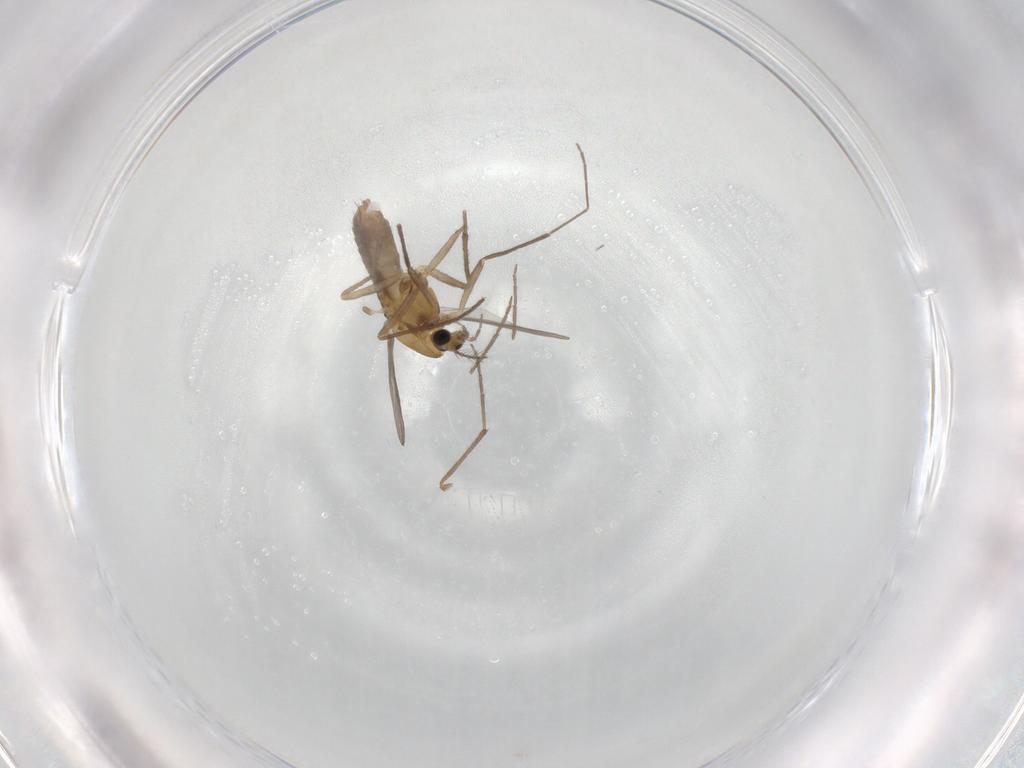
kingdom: Animalia
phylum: Arthropoda
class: Insecta
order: Diptera
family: Chironomidae
